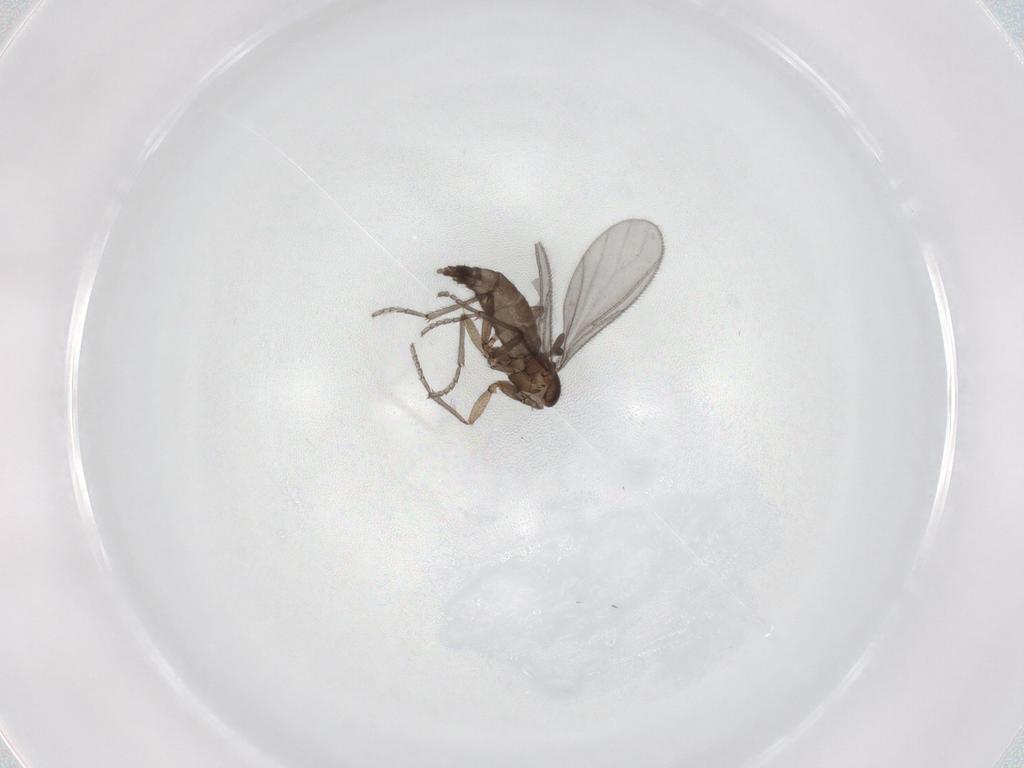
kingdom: Animalia
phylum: Arthropoda
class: Insecta
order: Diptera
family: Sciaridae
